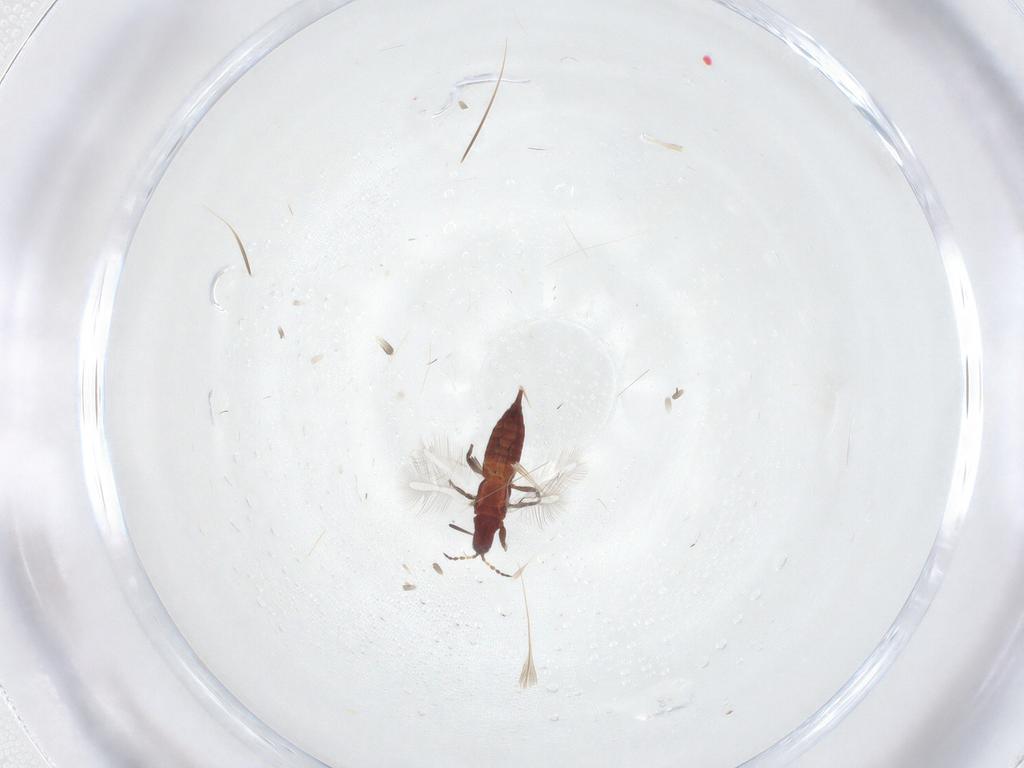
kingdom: Animalia
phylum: Arthropoda
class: Insecta
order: Thysanoptera
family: Phlaeothripidae
